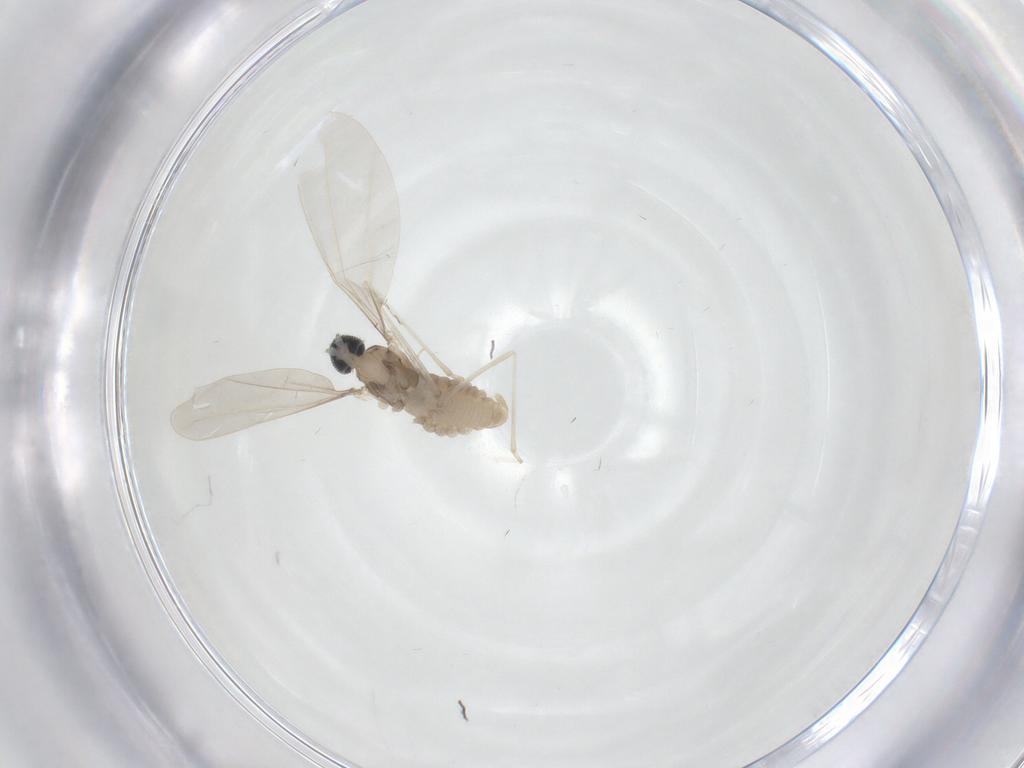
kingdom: Animalia
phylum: Arthropoda
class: Insecta
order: Diptera
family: Cecidomyiidae
